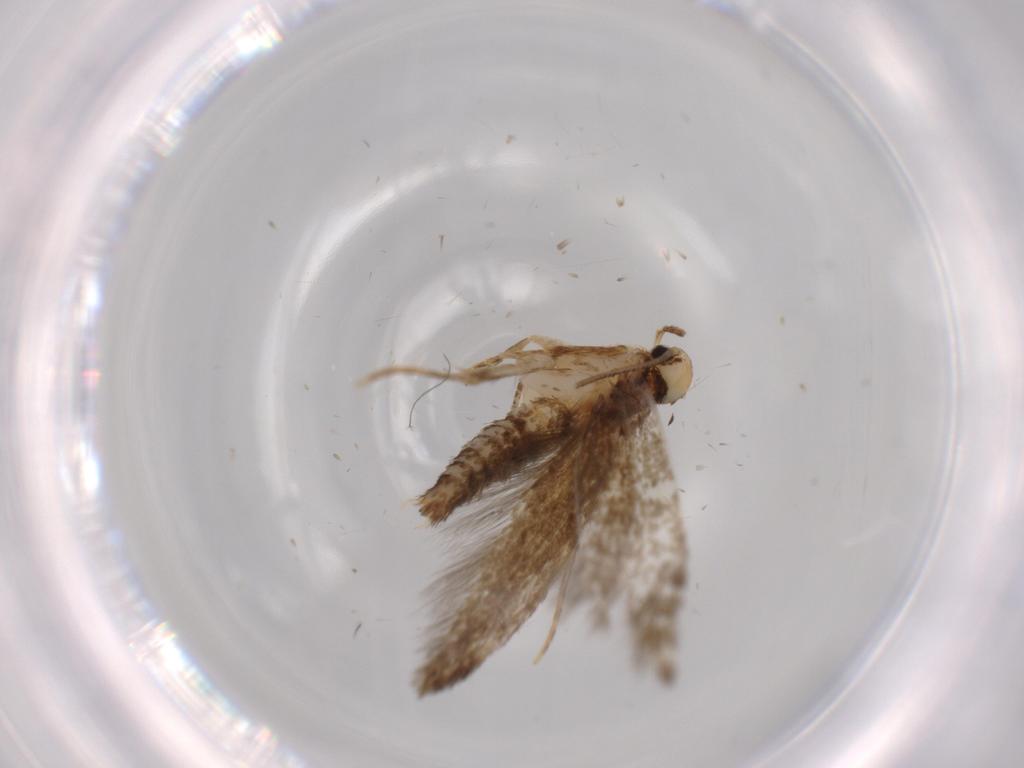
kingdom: Animalia
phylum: Arthropoda
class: Insecta
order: Lepidoptera
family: Tineidae
